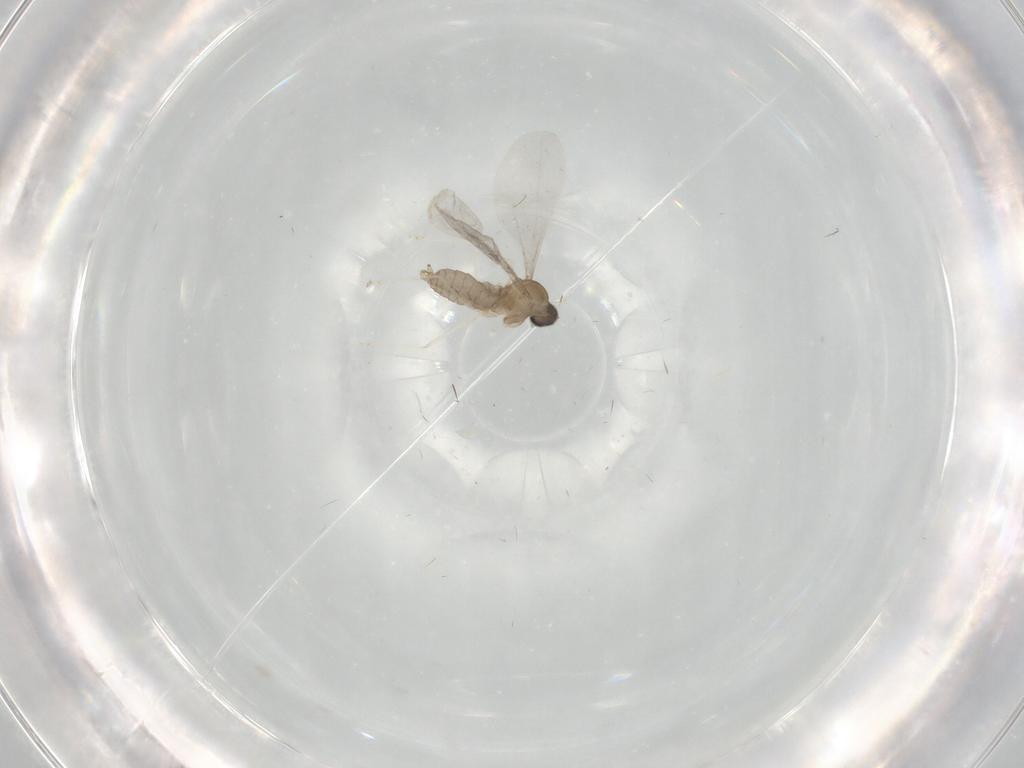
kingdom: Animalia
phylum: Arthropoda
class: Insecta
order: Diptera
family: Cecidomyiidae
